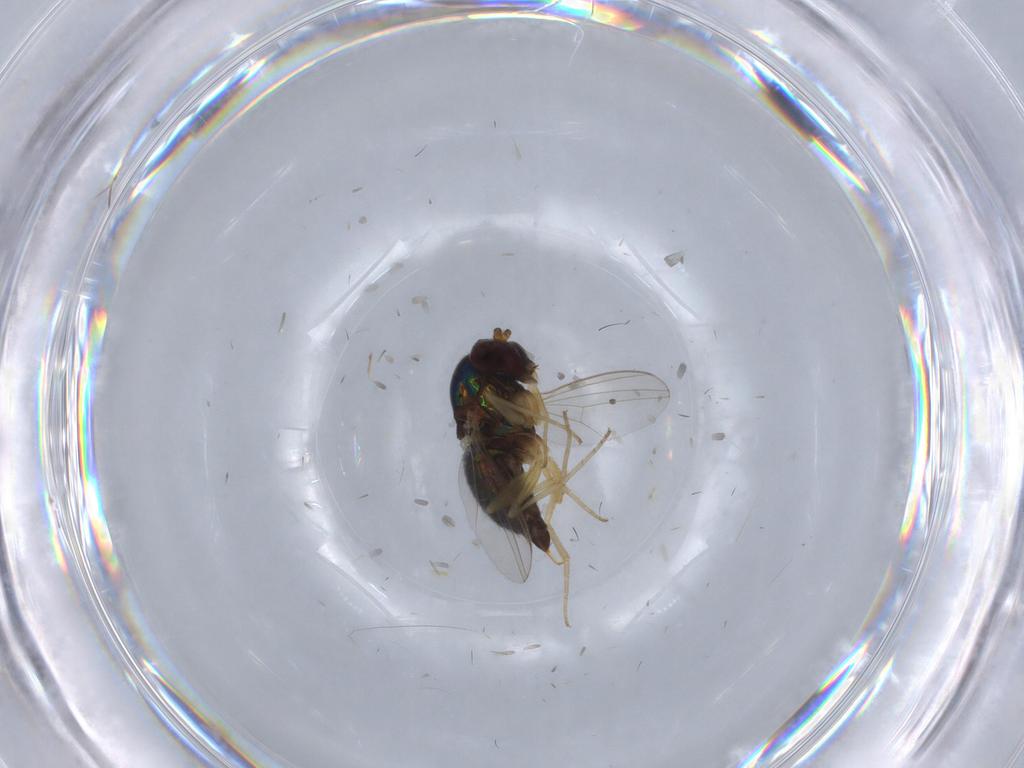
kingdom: Animalia
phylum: Arthropoda
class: Insecta
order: Diptera
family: Dolichopodidae
